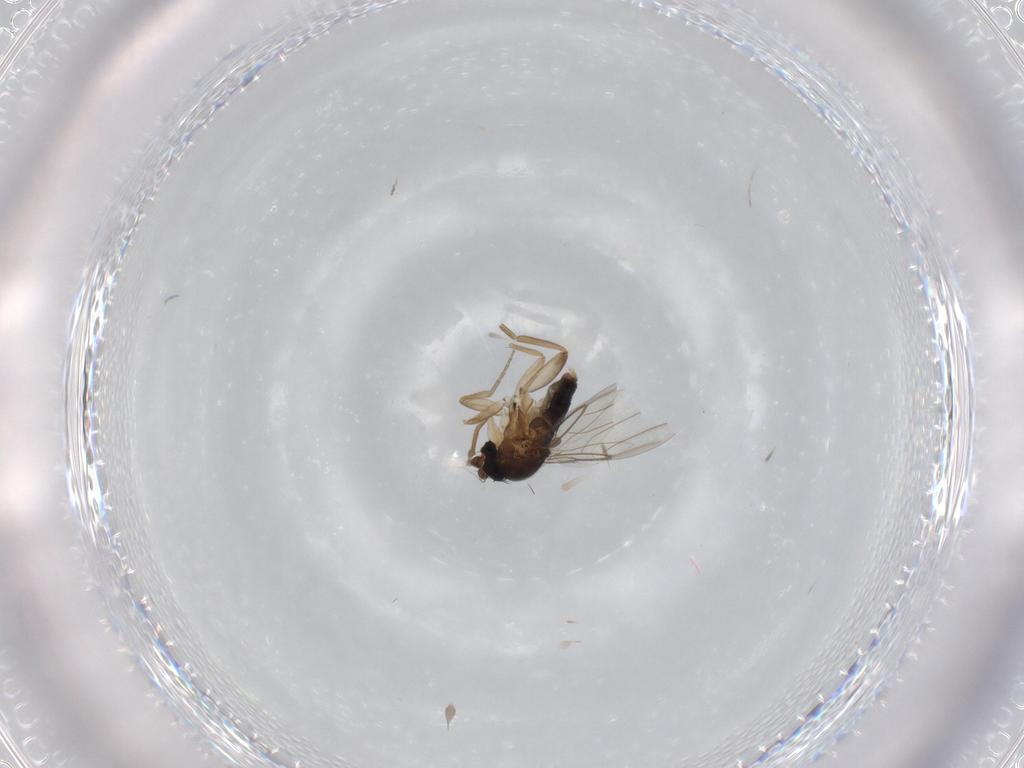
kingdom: Animalia
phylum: Arthropoda
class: Insecta
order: Diptera
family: Phoridae
